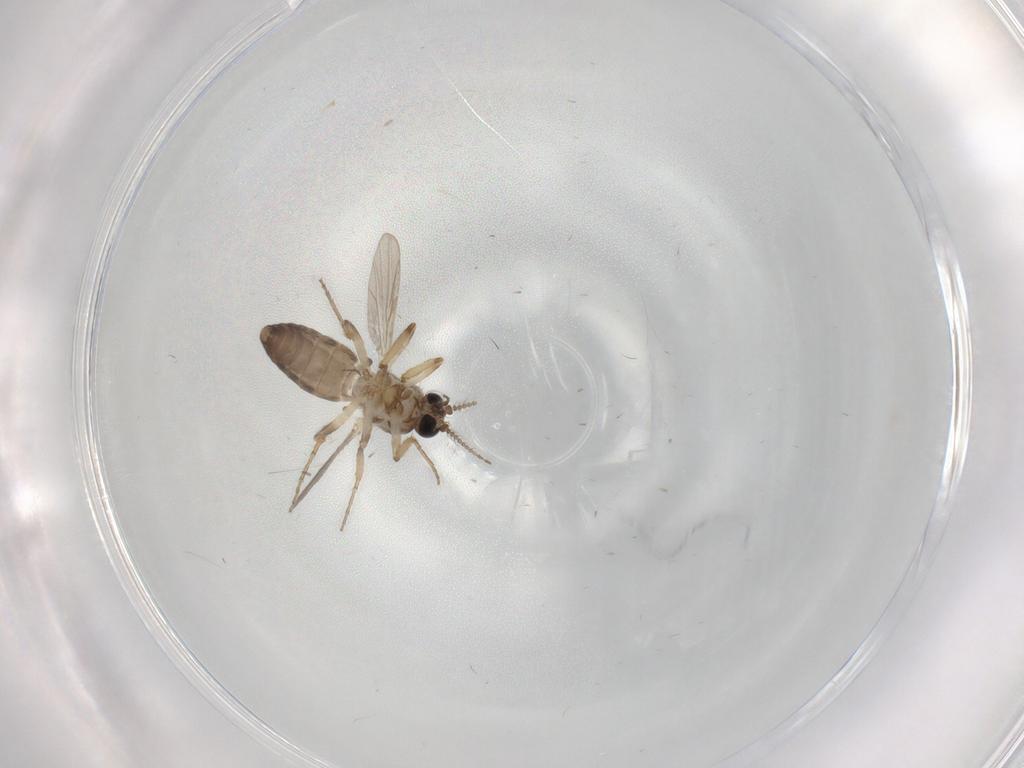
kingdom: Animalia
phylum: Arthropoda
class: Insecta
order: Diptera
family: Ceratopogonidae
